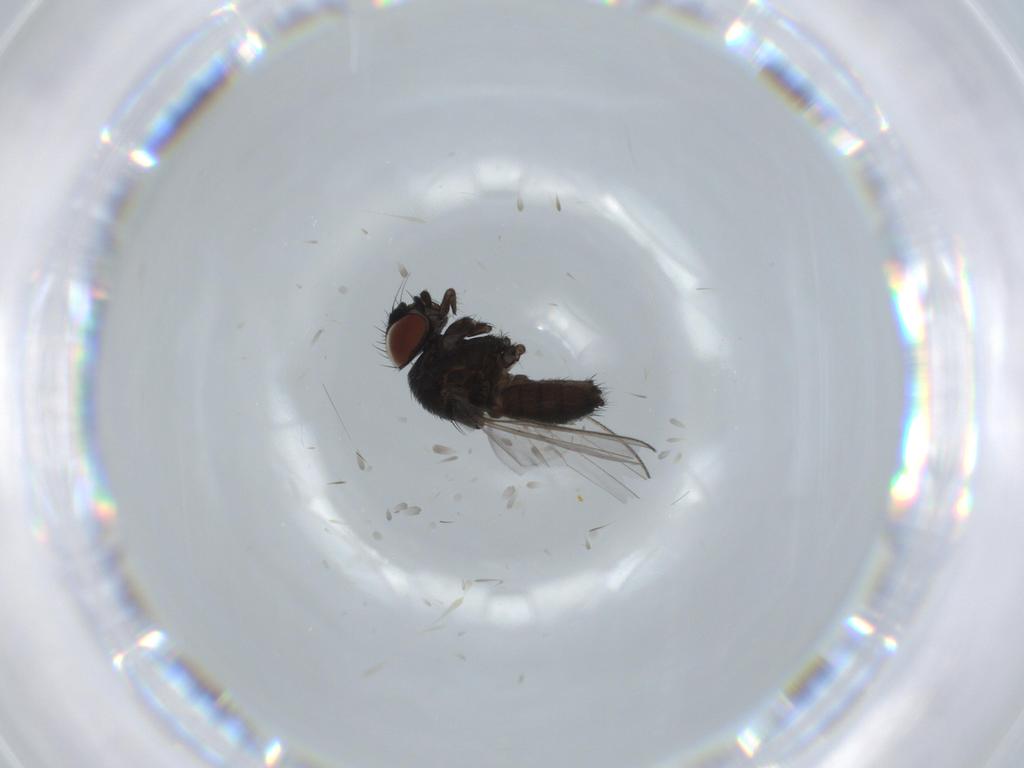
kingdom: Animalia
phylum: Arthropoda
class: Insecta
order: Diptera
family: Milichiidae
